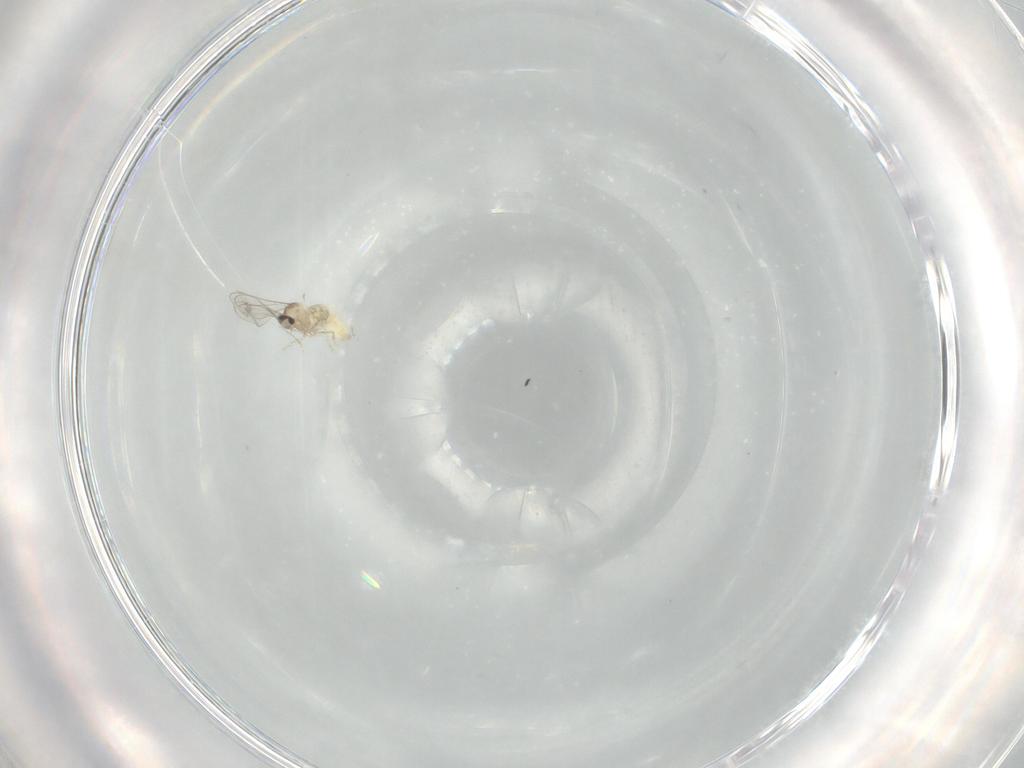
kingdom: Animalia
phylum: Arthropoda
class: Insecta
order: Diptera
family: Cecidomyiidae
